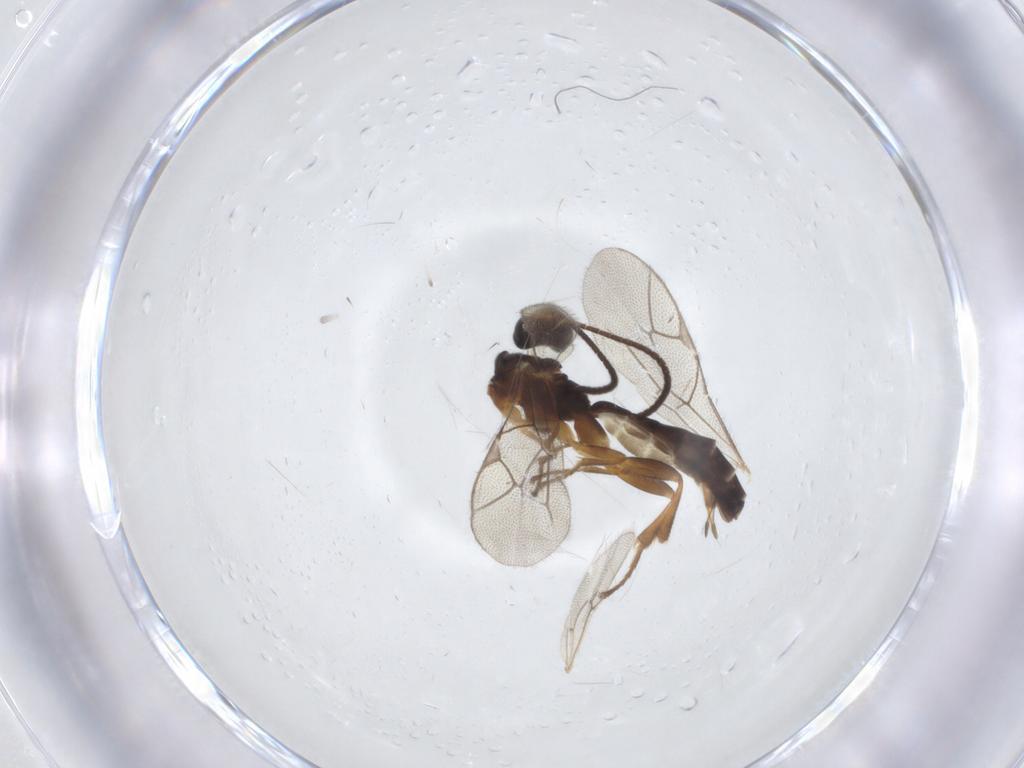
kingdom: Animalia
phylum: Arthropoda
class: Insecta
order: Hymenoptera
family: Ichneumonidae
